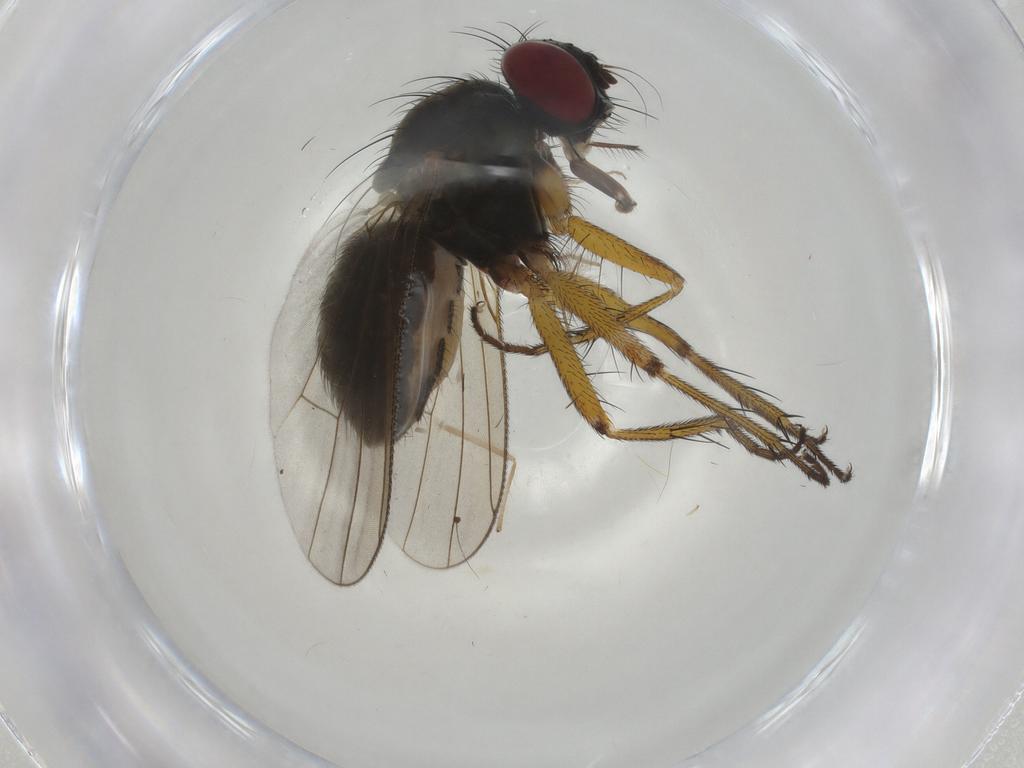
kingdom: Animalia
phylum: Arthropoda
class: Insecta
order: Diptera
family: Muscidae
